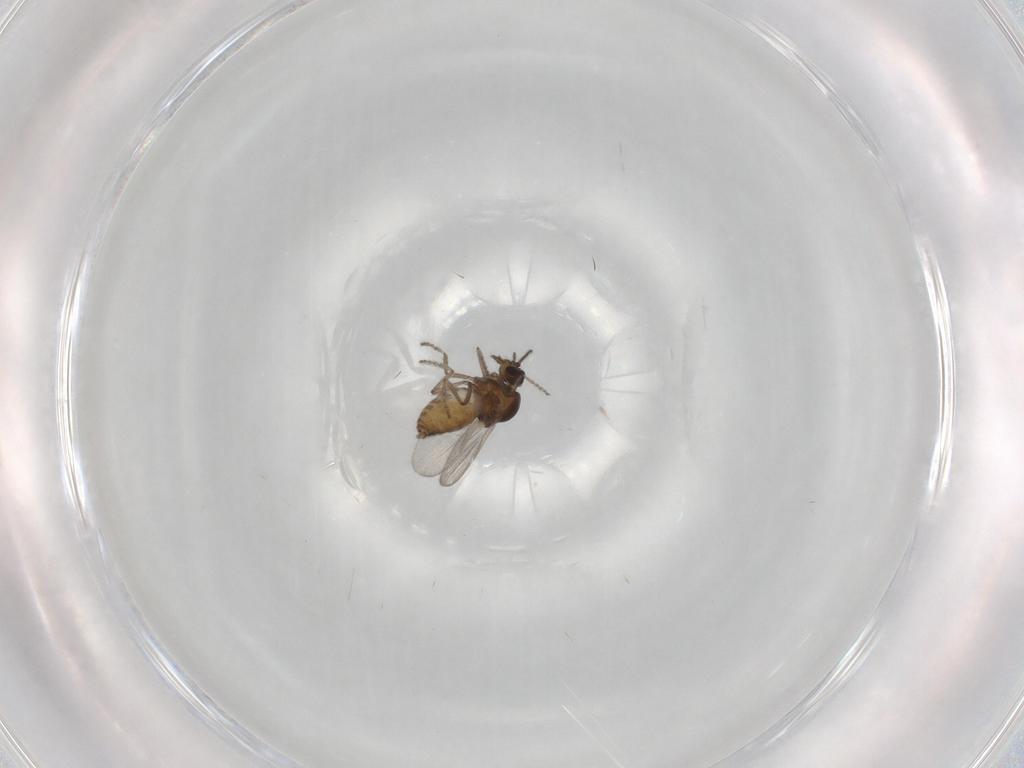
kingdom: Animalia
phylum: Arthropoda
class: Insecta
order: Diptera
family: Ceratopogonidae
